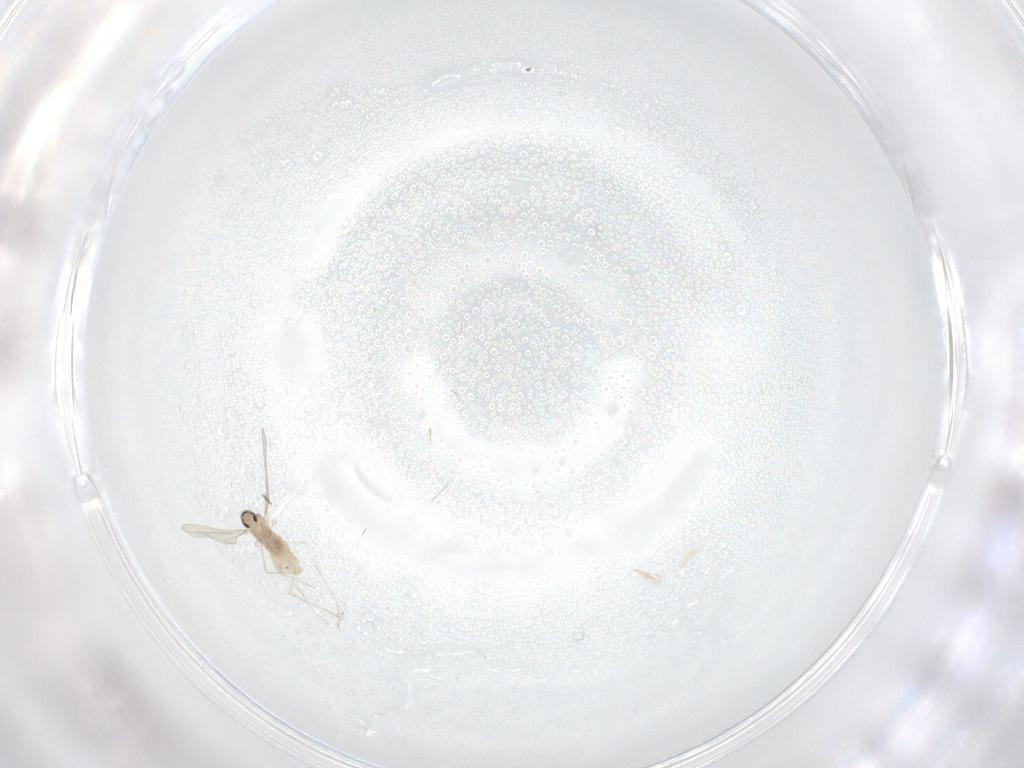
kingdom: Animalia
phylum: Arthropoda
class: Insecta
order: Diptera
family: Cecidomyiidae
